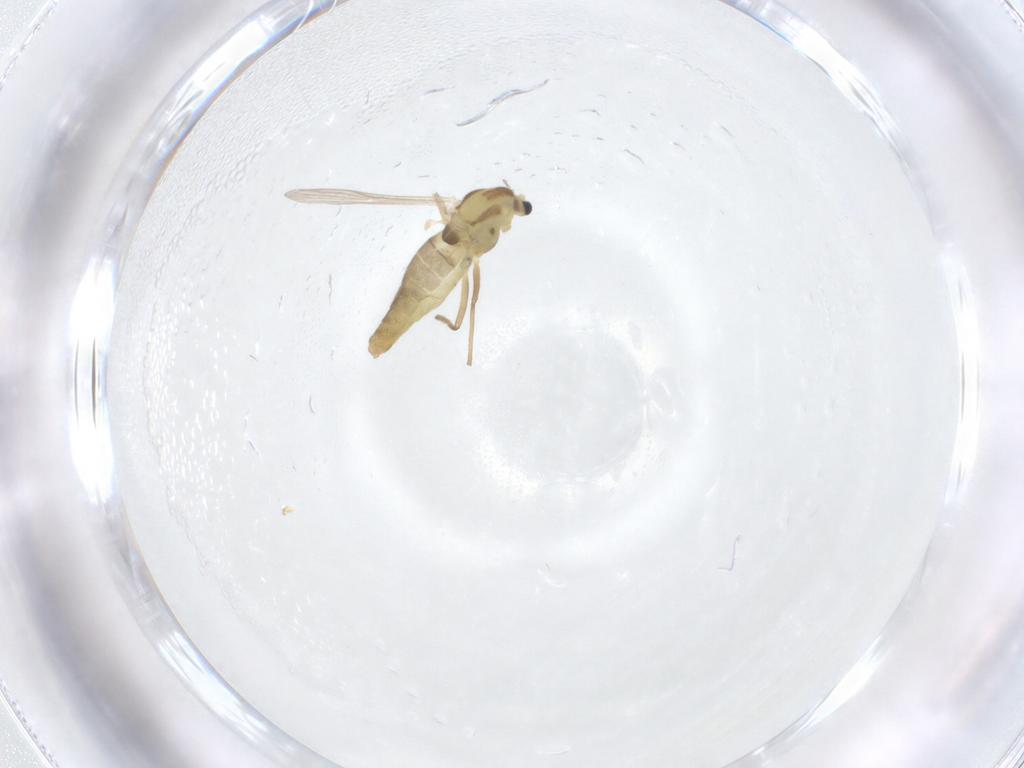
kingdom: Animalia
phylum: Arthropoda
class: Insecta
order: Diptera
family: Chironomidae
